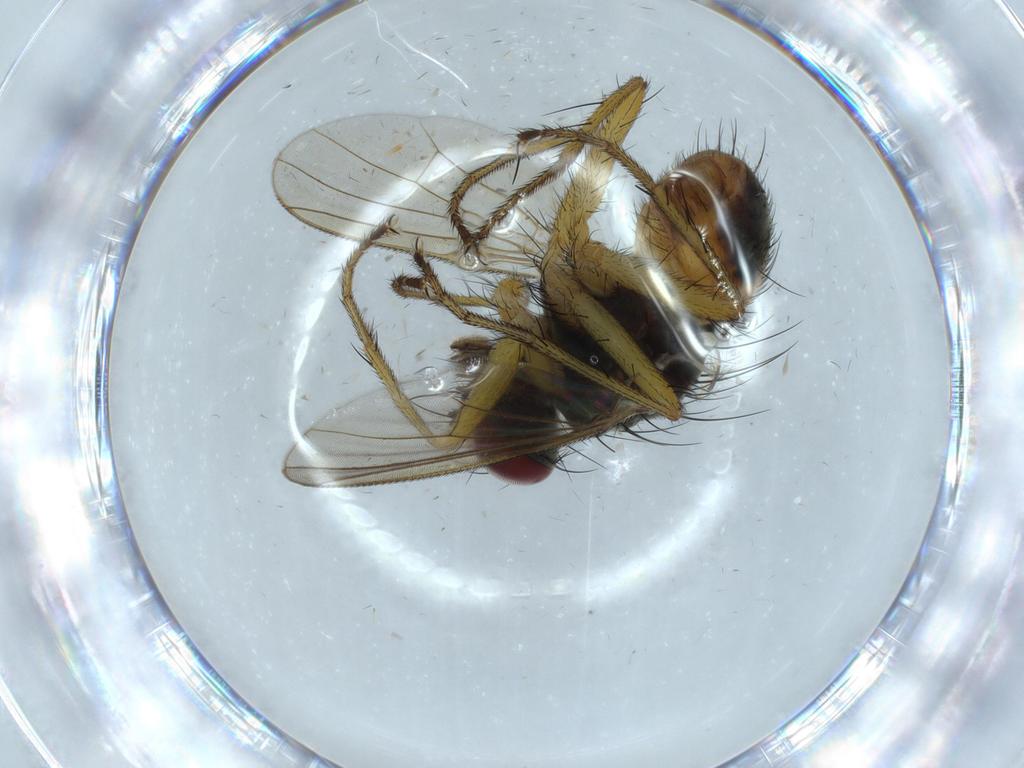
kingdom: Animalia
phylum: Arthropoda
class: Insecta
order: Diptera
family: Muscidae
